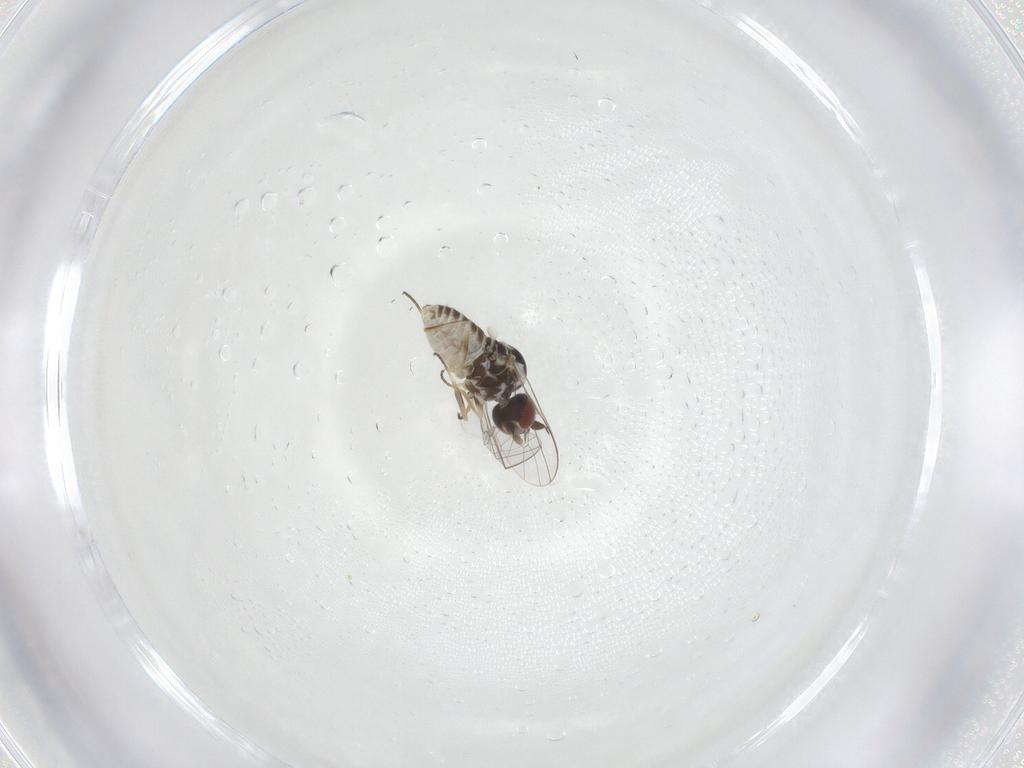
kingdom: Animalia
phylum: Arthropoda
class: Insecta
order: Diptera
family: Bombyliidae
